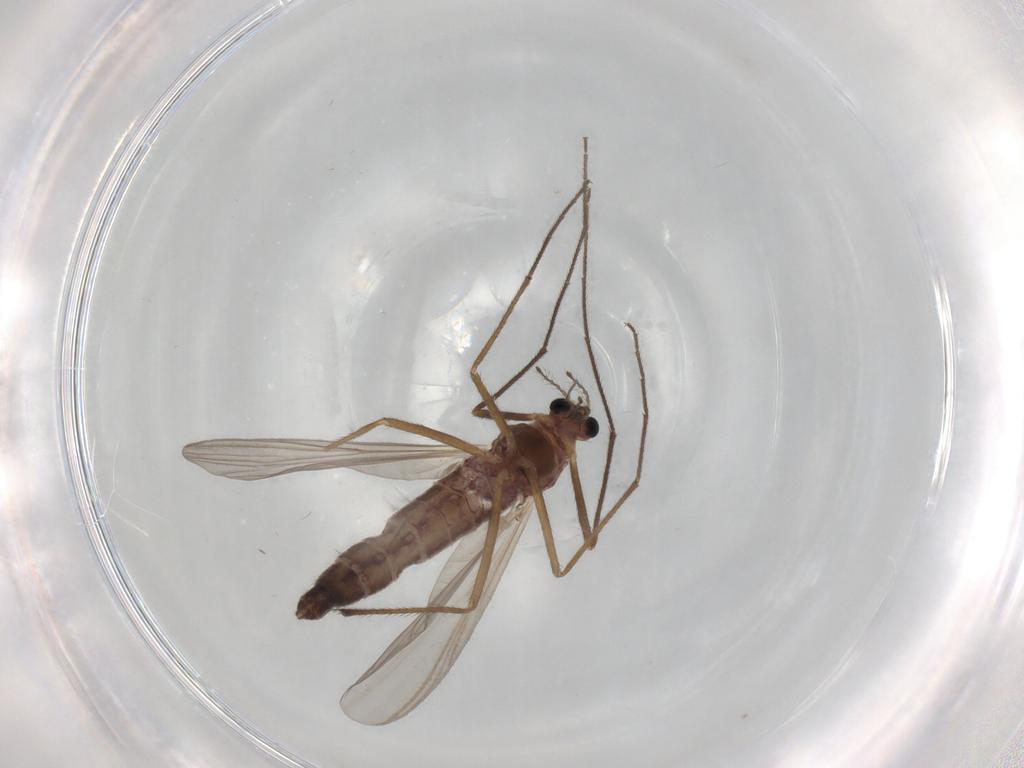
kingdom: Animalia
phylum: Arthropoda
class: Insecta
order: Diptera
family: Chironomidae
